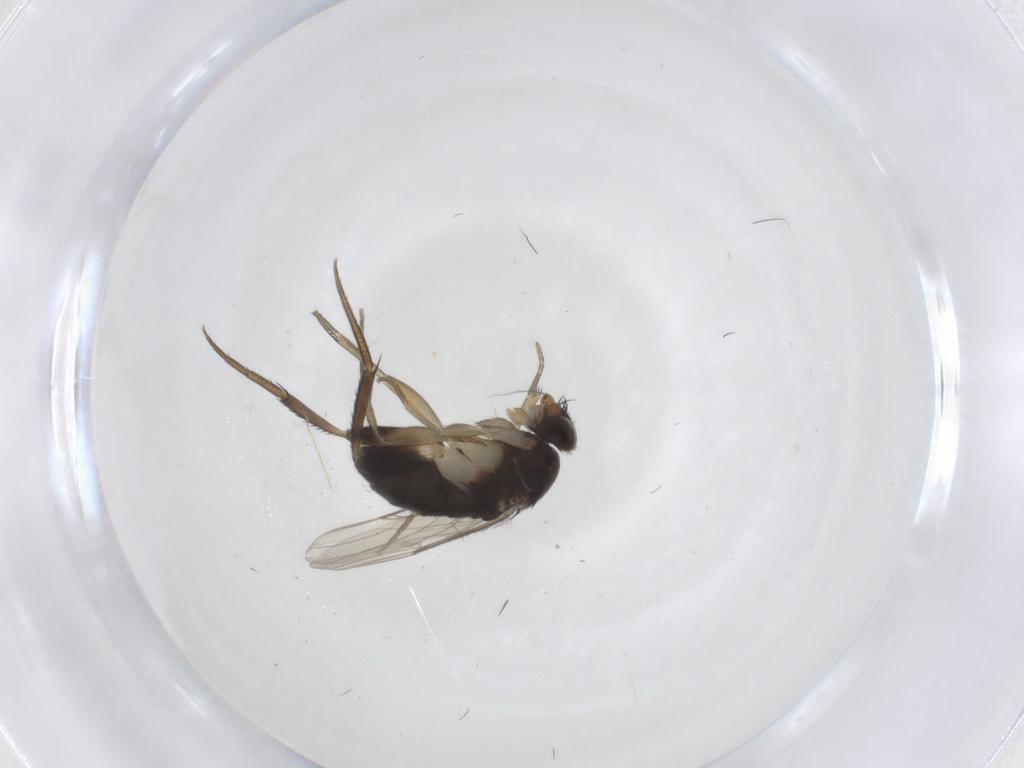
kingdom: Animalia
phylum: Arthropoda
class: Insecta
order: Diptera
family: Phoridae
